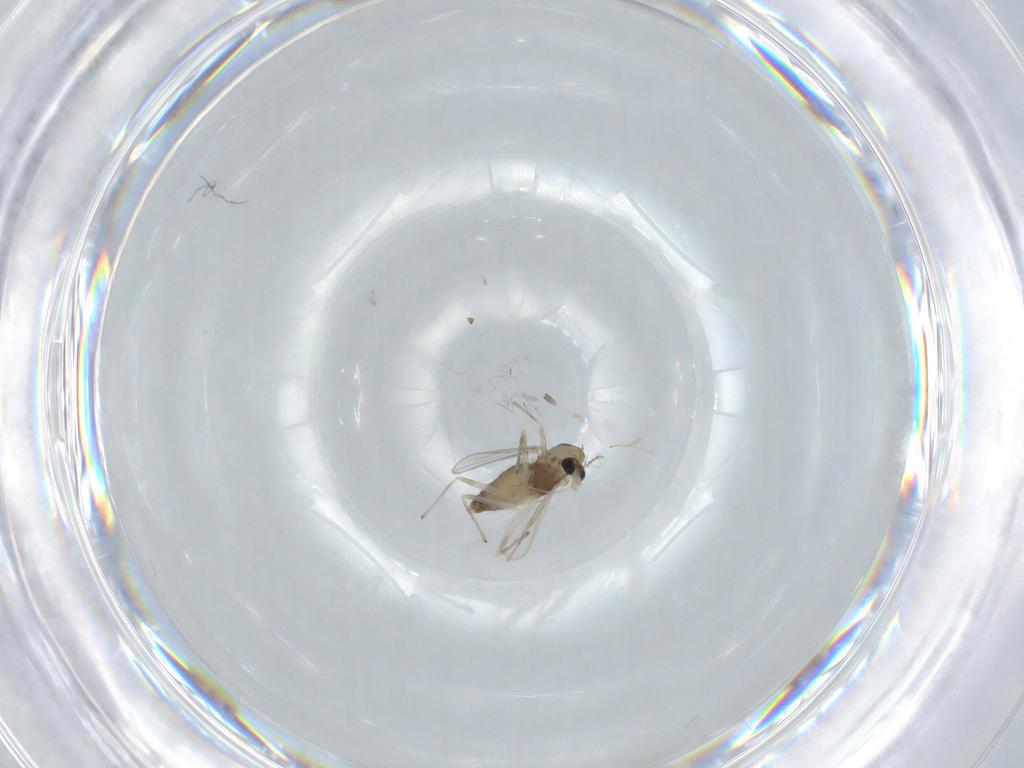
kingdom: Animalia
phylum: Arthropoda
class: Insecta
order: Diptera
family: Chironomidae
